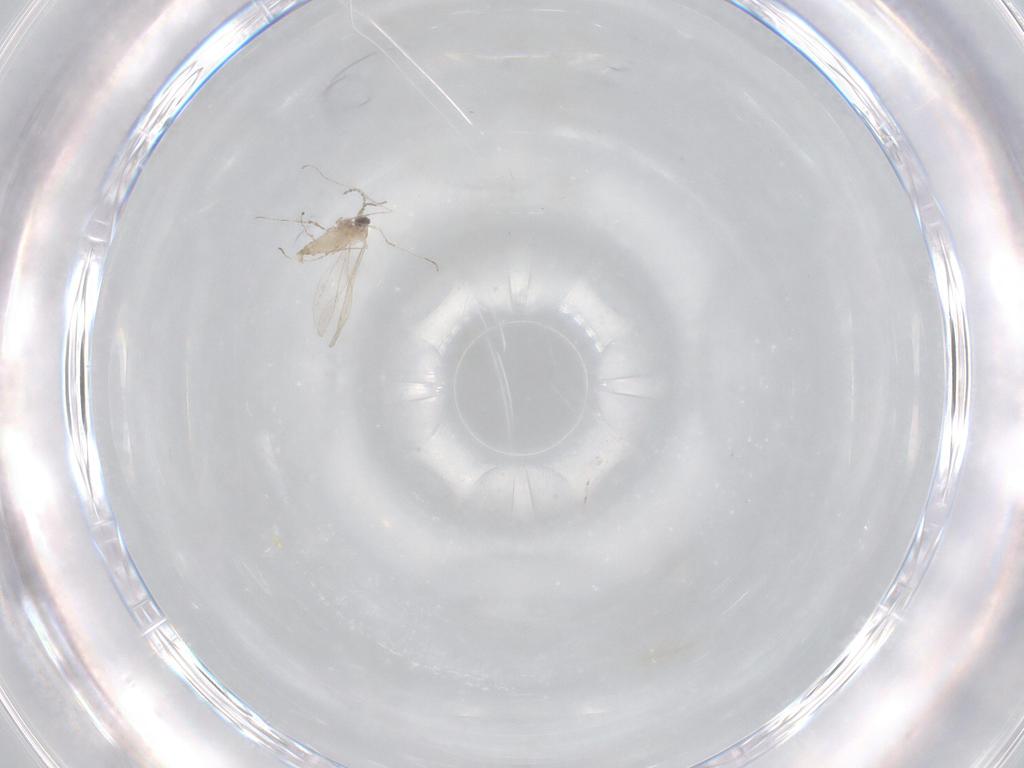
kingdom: Animalia
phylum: Arthropoda
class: Insecta
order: Diptera
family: Cecidomyiidae
